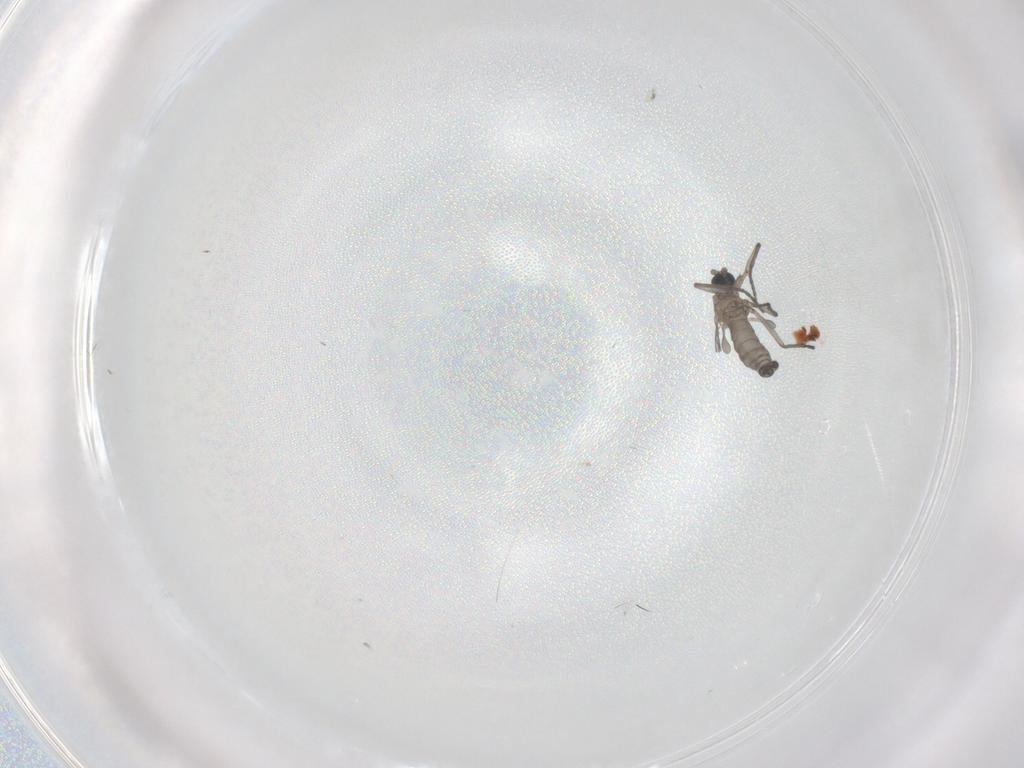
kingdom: Animalia
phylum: Arthropoda
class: Insecta
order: Diptera
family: Sciaridae
